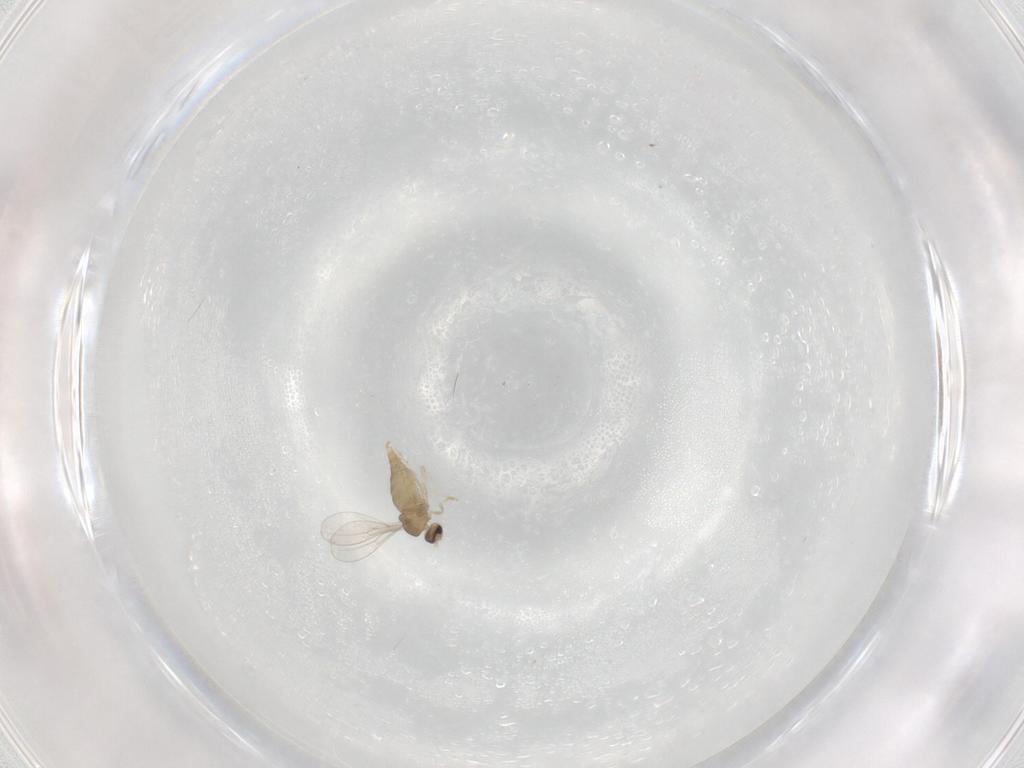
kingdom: Animalia
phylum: Arthropoda
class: Insecta
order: Diptera
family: Cecidomyiidae
